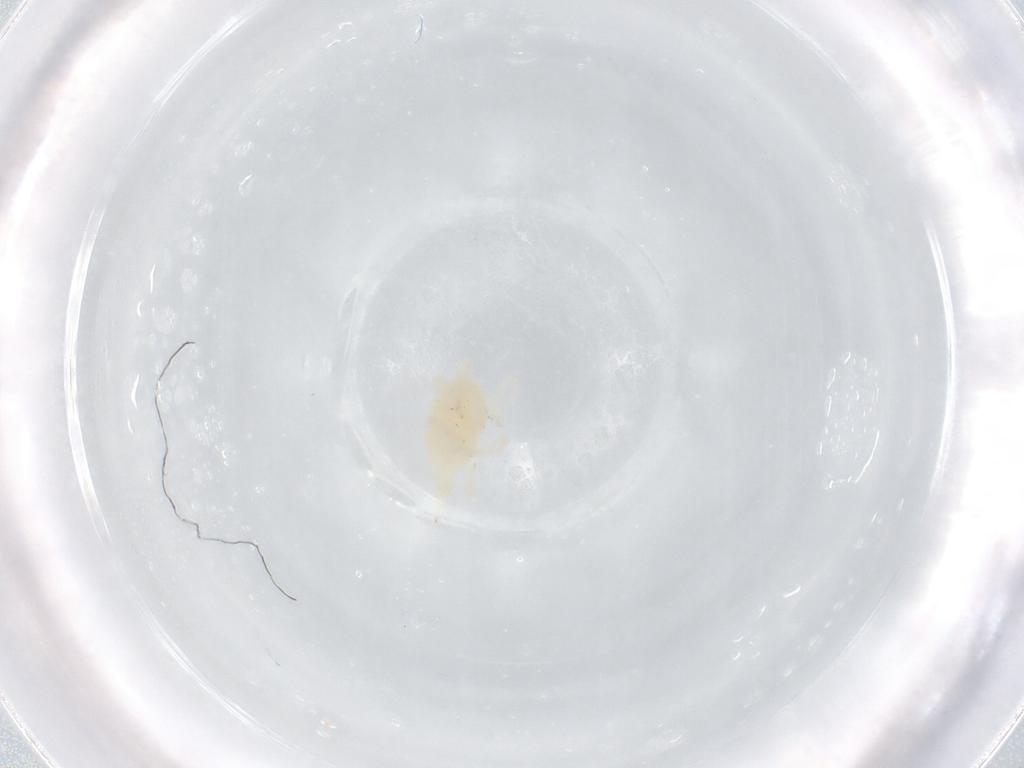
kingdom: Animalia
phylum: Arthropoda
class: Arachnida
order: Trombidiformes
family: Bdellidae
